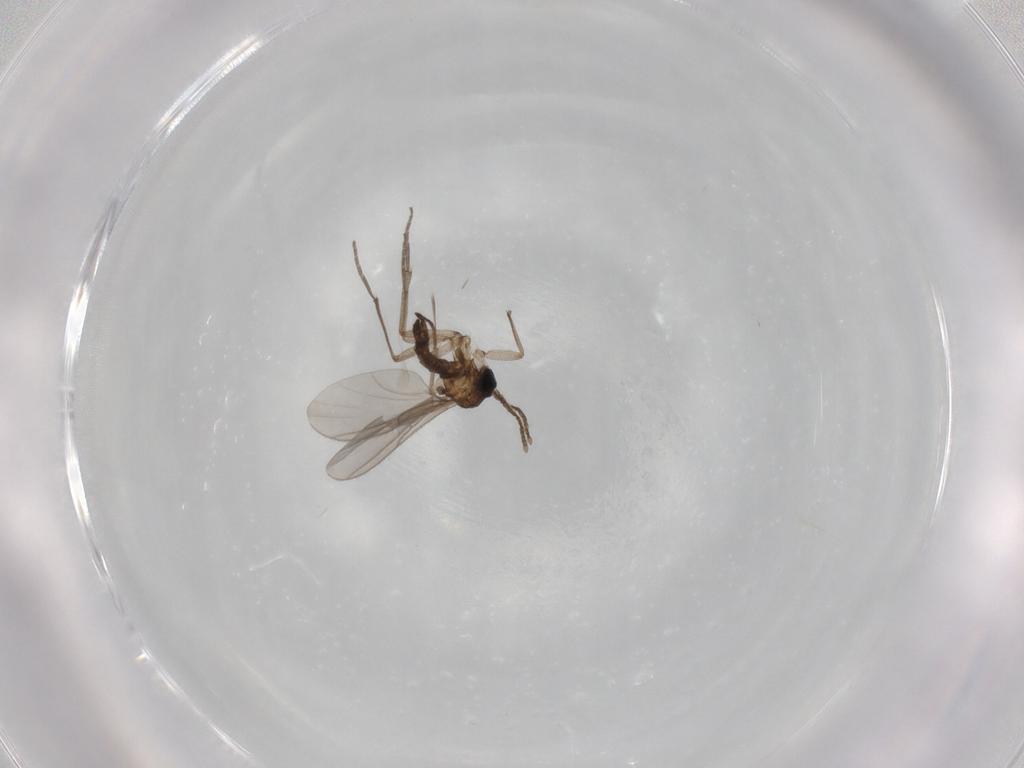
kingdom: Animalia
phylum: Arthropoda
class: Insecta
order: Diptera
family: Sciaridae
